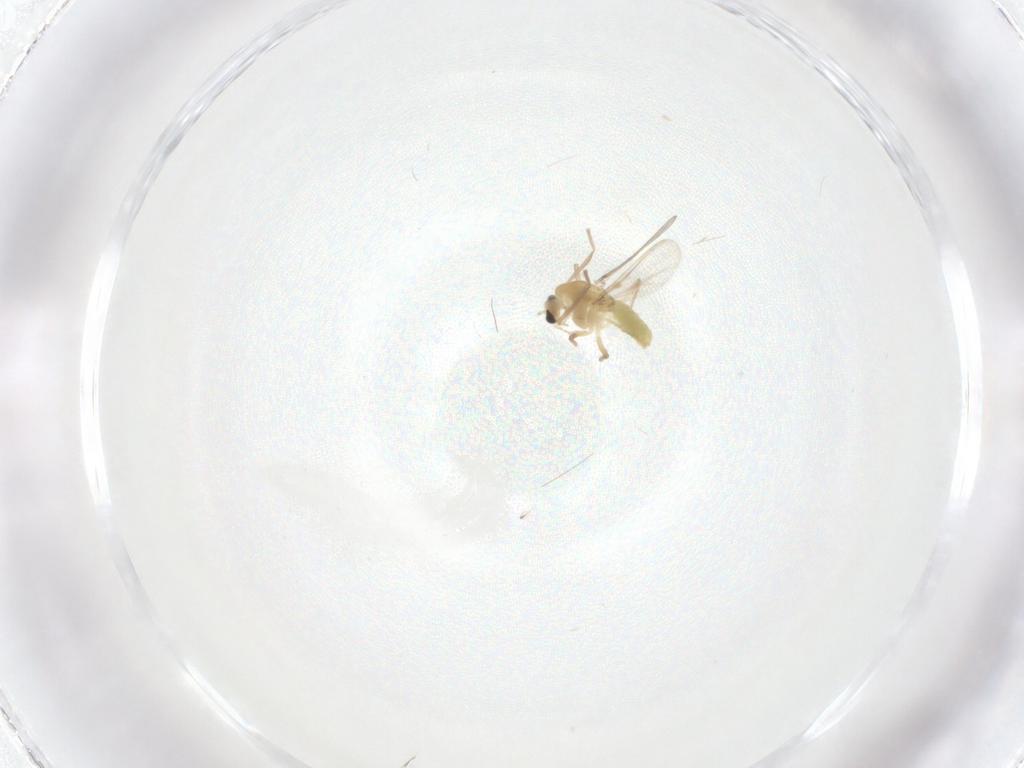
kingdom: Animalia
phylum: Arthropoda
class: Insecta
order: Diptera
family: Chironomidae
